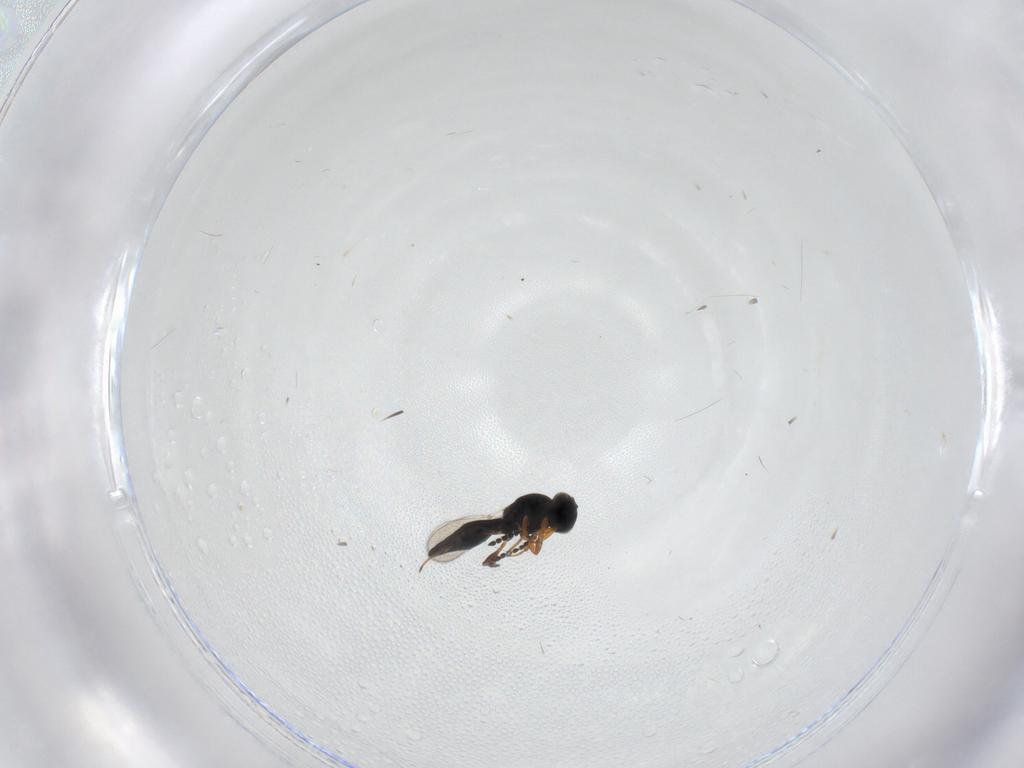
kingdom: Animalia
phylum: Arthropoda
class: Insecta
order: Hymenoptera
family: Platygastridae
